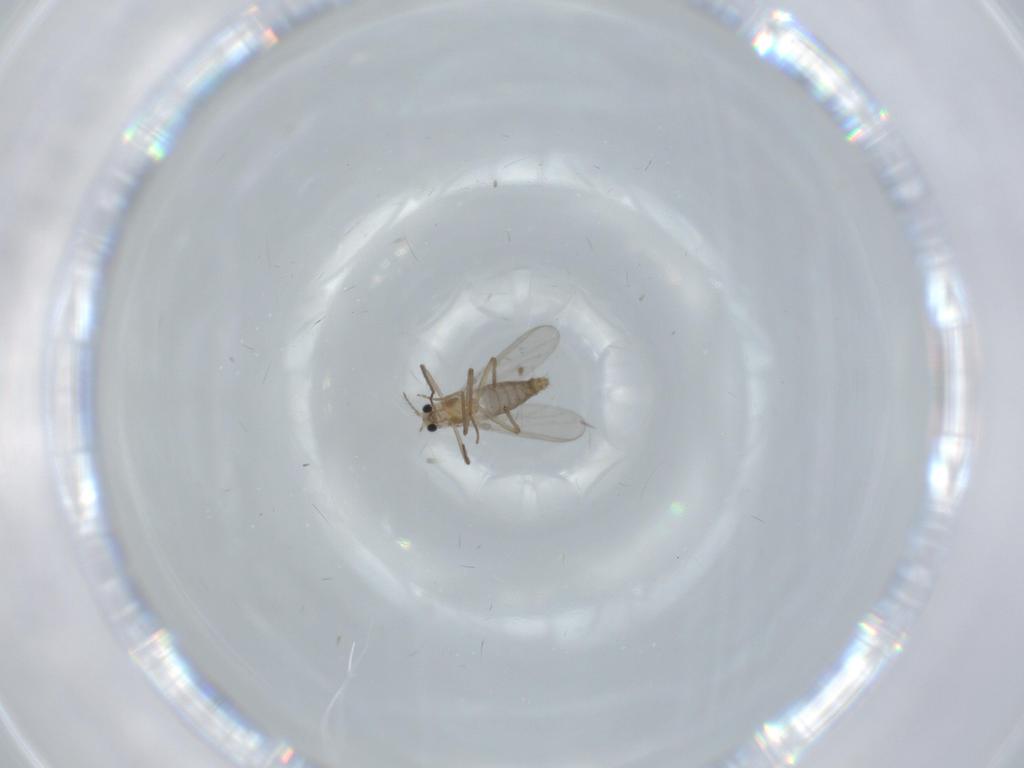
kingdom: Animalia
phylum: Arthropoda
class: Insecta
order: Diptera
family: Chironomidae
